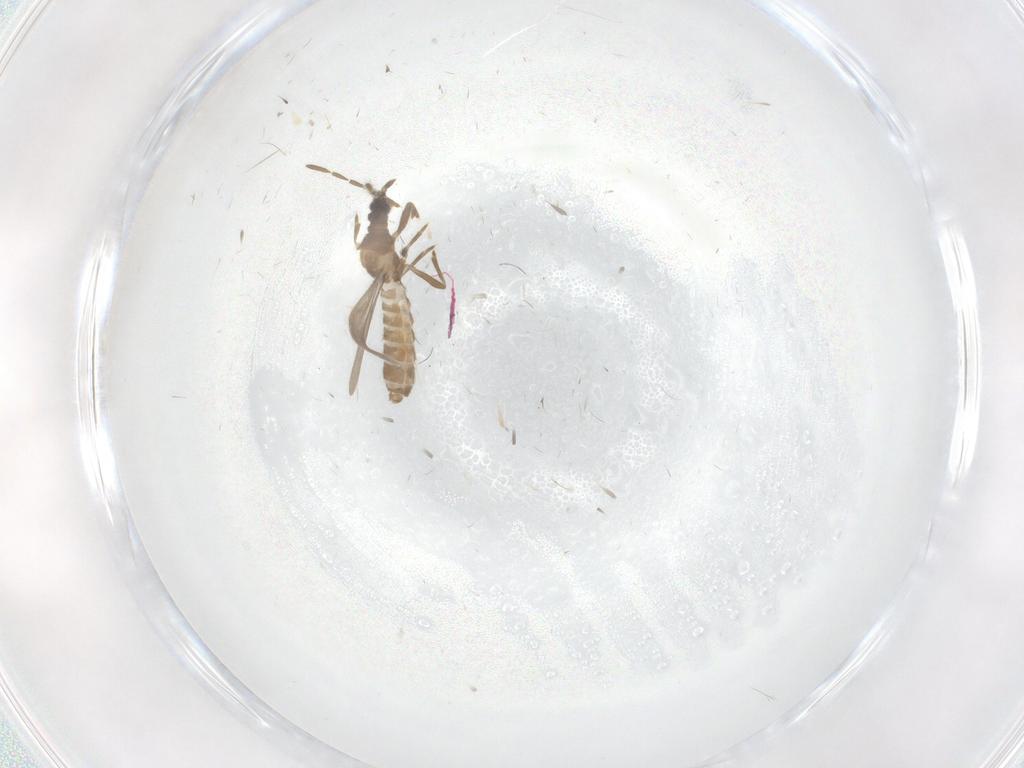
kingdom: Animalia
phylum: Arthropoda
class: Insecta
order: Hemiptera
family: Enicocephalidae
